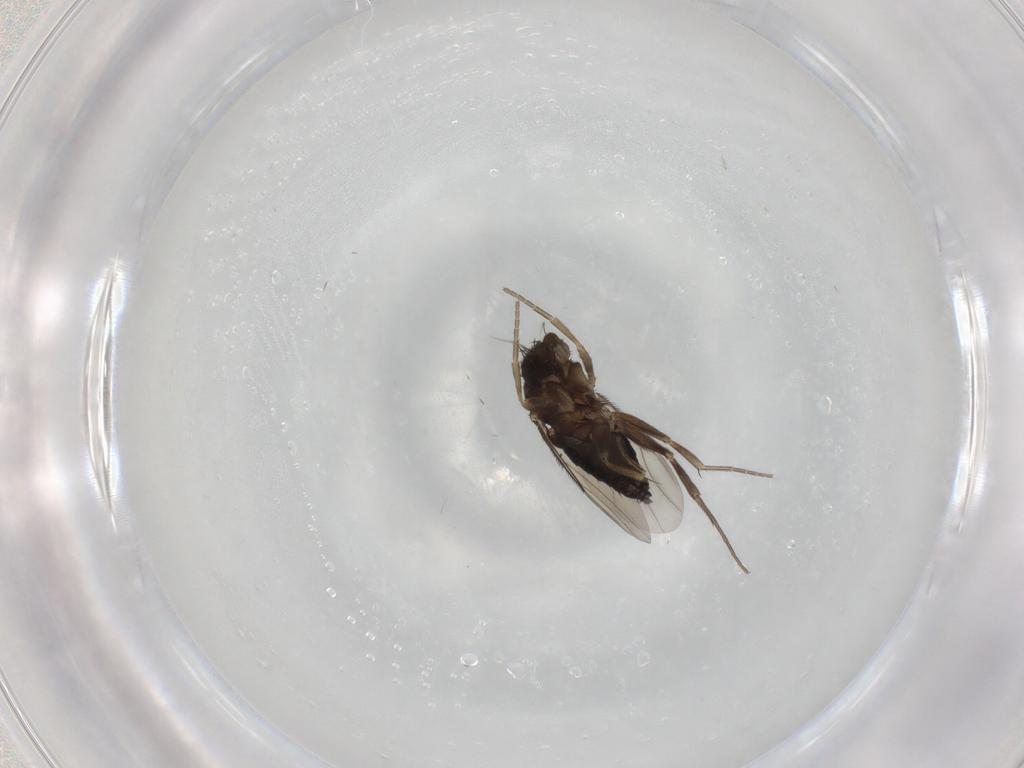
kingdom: Animalia
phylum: Arthropoda
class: Insecta
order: Diptera
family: Phoridae
